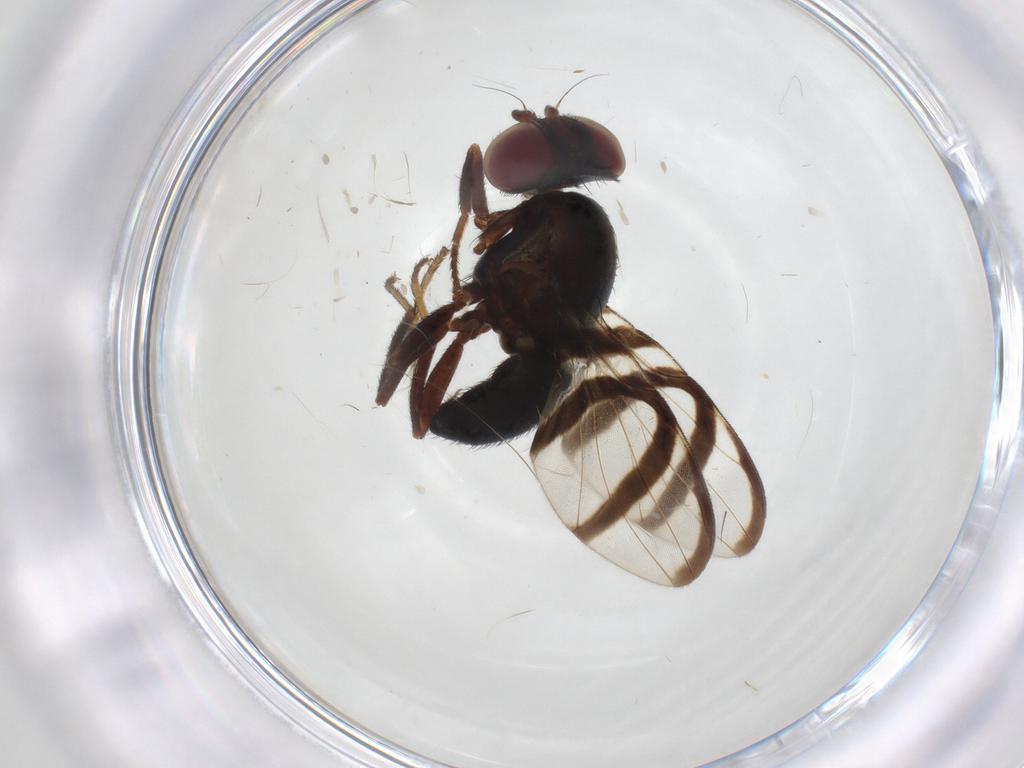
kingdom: Animalia
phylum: Arthropoda
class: Insecta
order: Diptera
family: Ulidiidae
